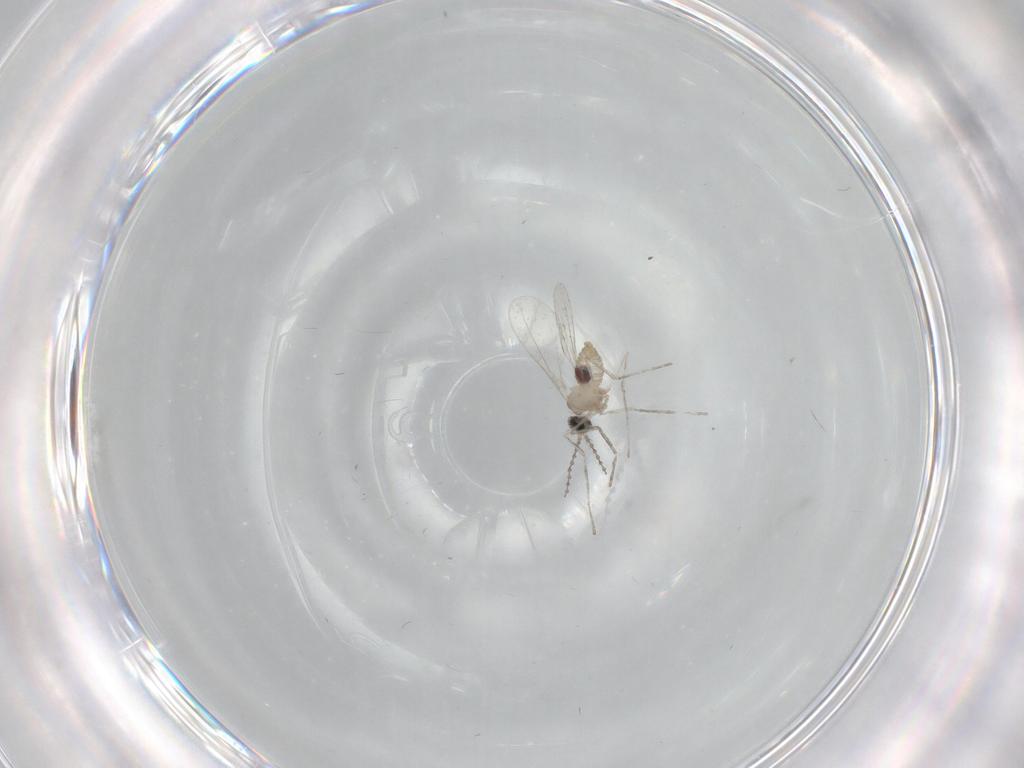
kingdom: Animalia
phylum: Arthropoda
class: Insecta
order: Diptera
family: Cecidomyiidae
